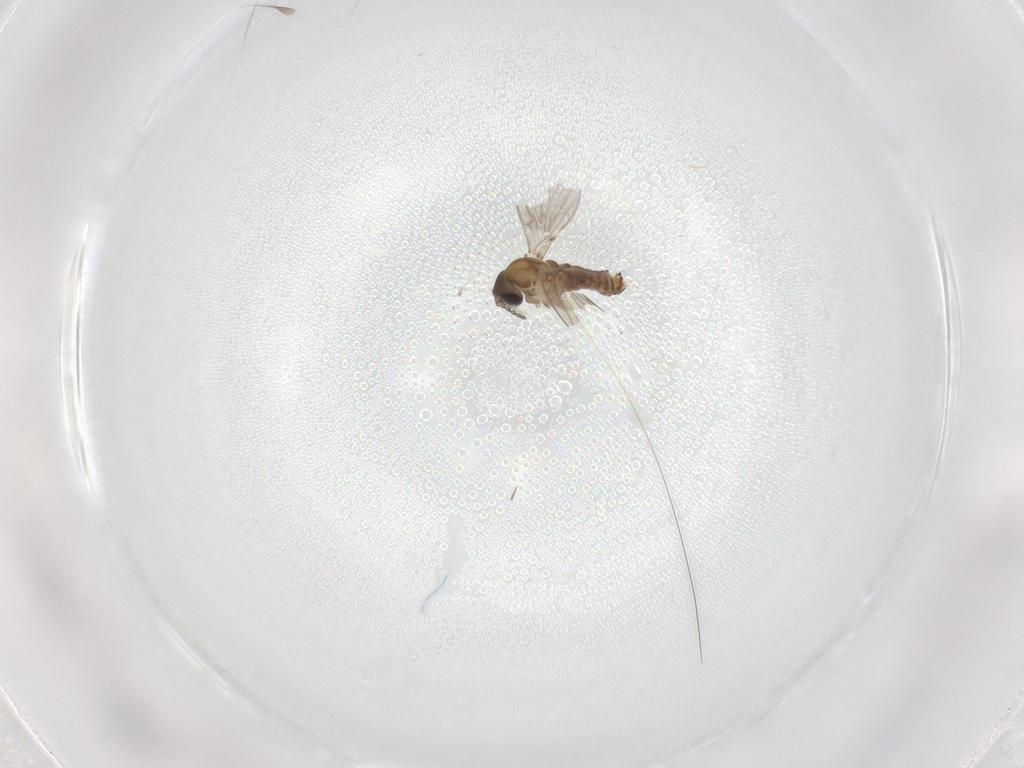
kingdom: Animalia
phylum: Arthropoda
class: Insecta
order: Diptera
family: Psychodidae
